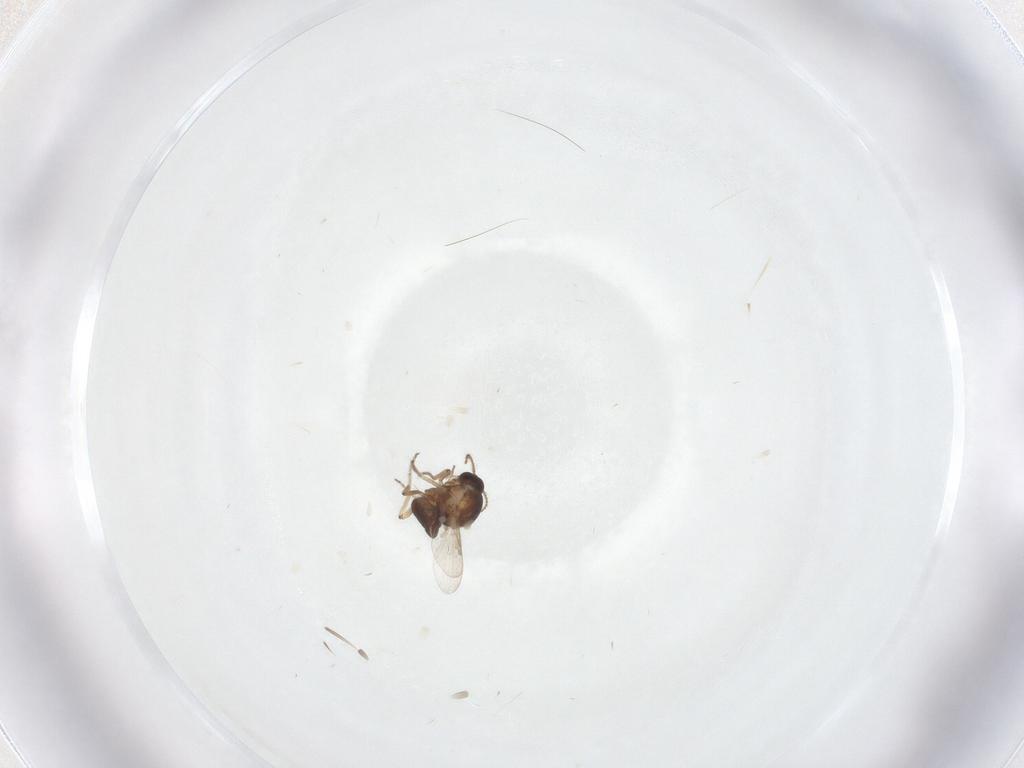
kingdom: Animalia
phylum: Arthropoda
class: Insecta
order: Diptera
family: Ceratopogonidae
